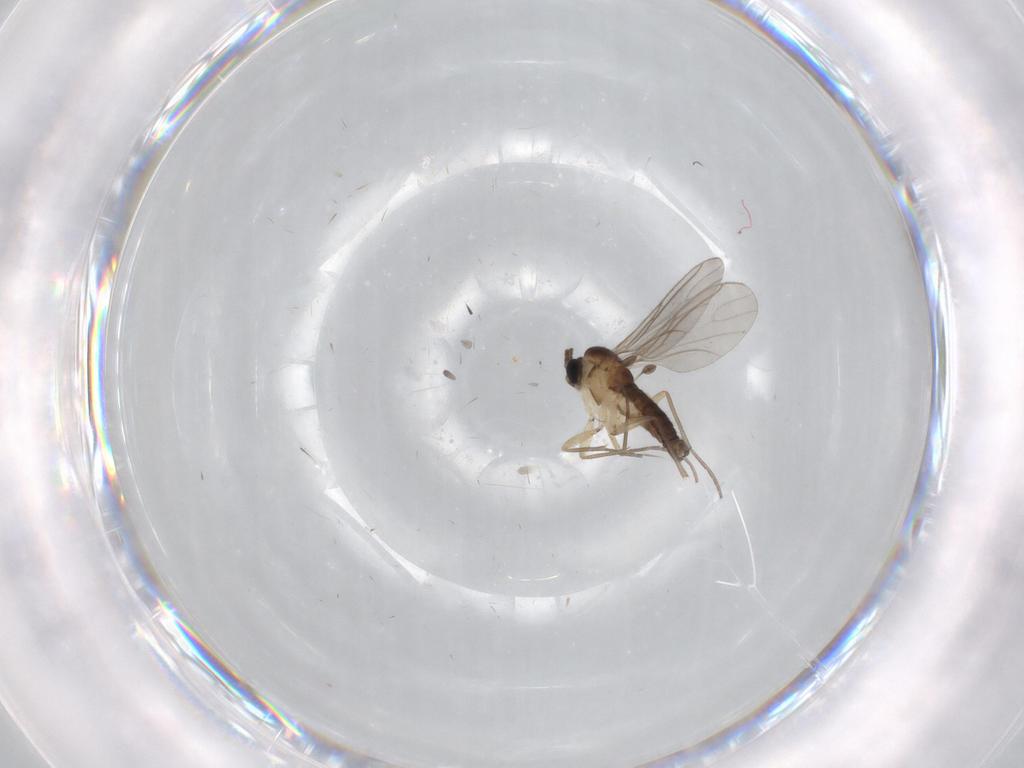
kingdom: Animalia
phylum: Arthropoda
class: Insecta
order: Diptera
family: Sciaridae
